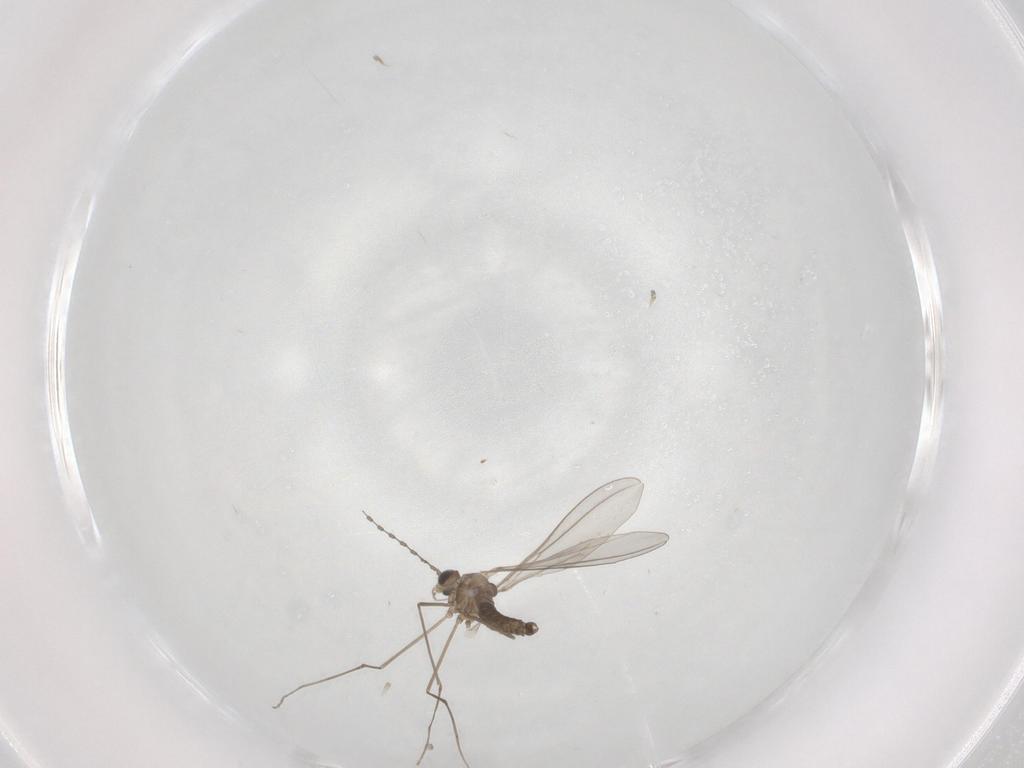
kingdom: Animalia
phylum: Arthropoda
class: Insecta
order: Diptera
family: Cecidomyiidae
